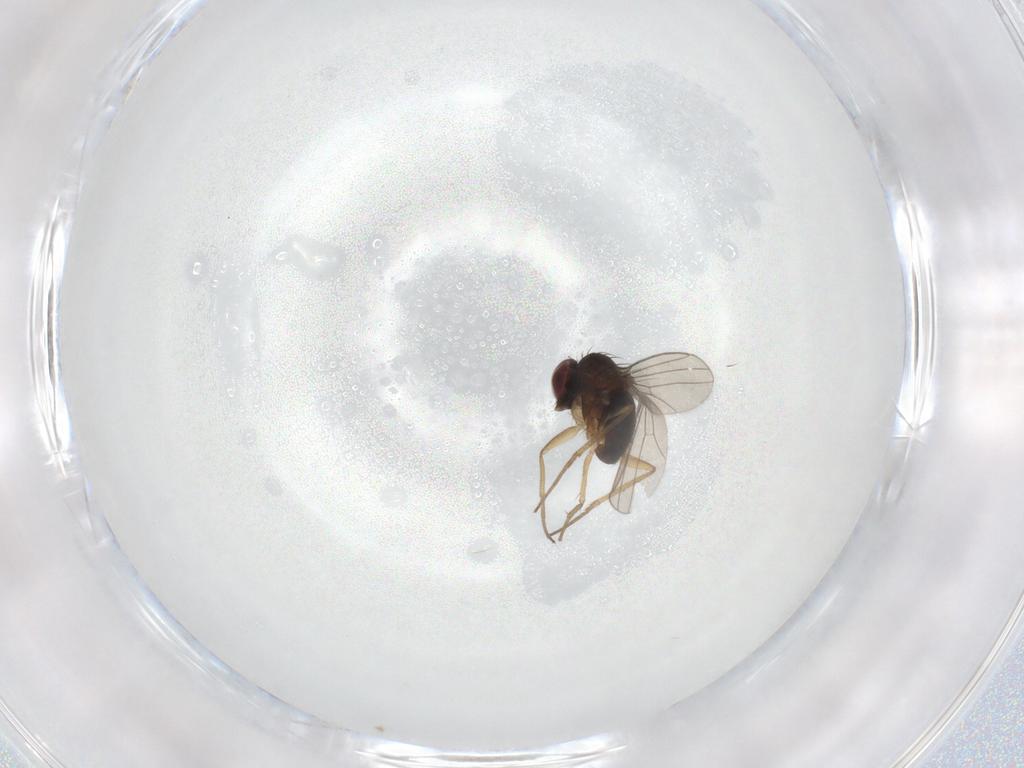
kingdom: Animalia
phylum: Arthropoda
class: Insecta
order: Diptera
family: Dolichopodidae
